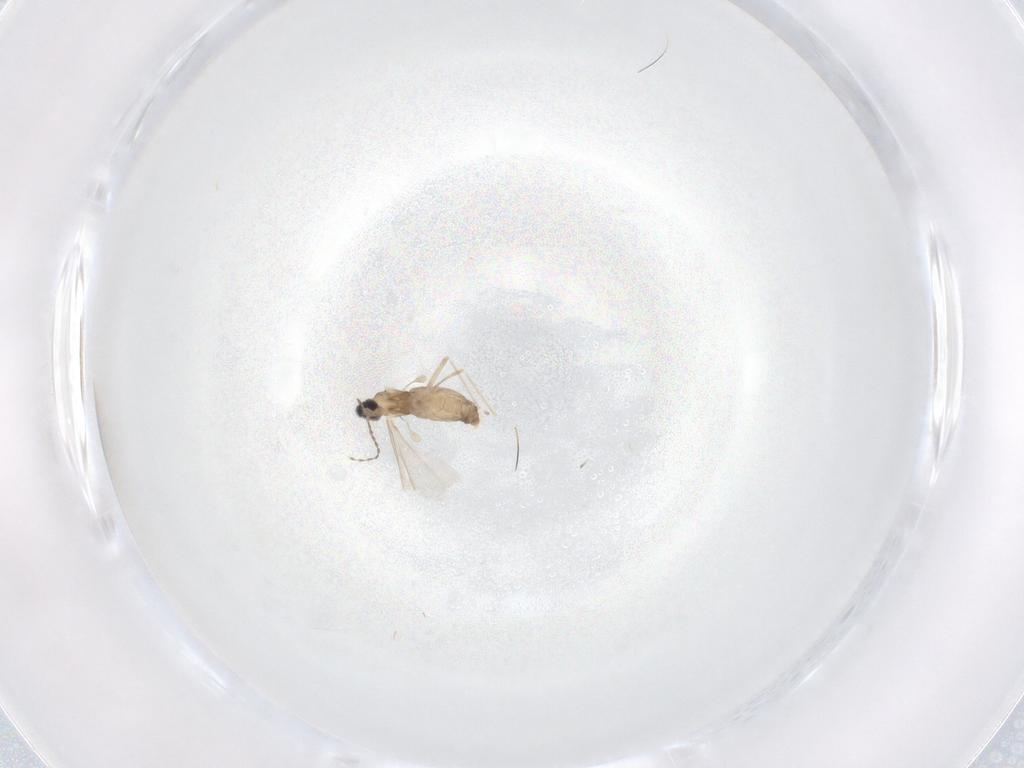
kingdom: Animalia
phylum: Arthropoda
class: Insecta
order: Diptera
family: Cecidomyiidae
